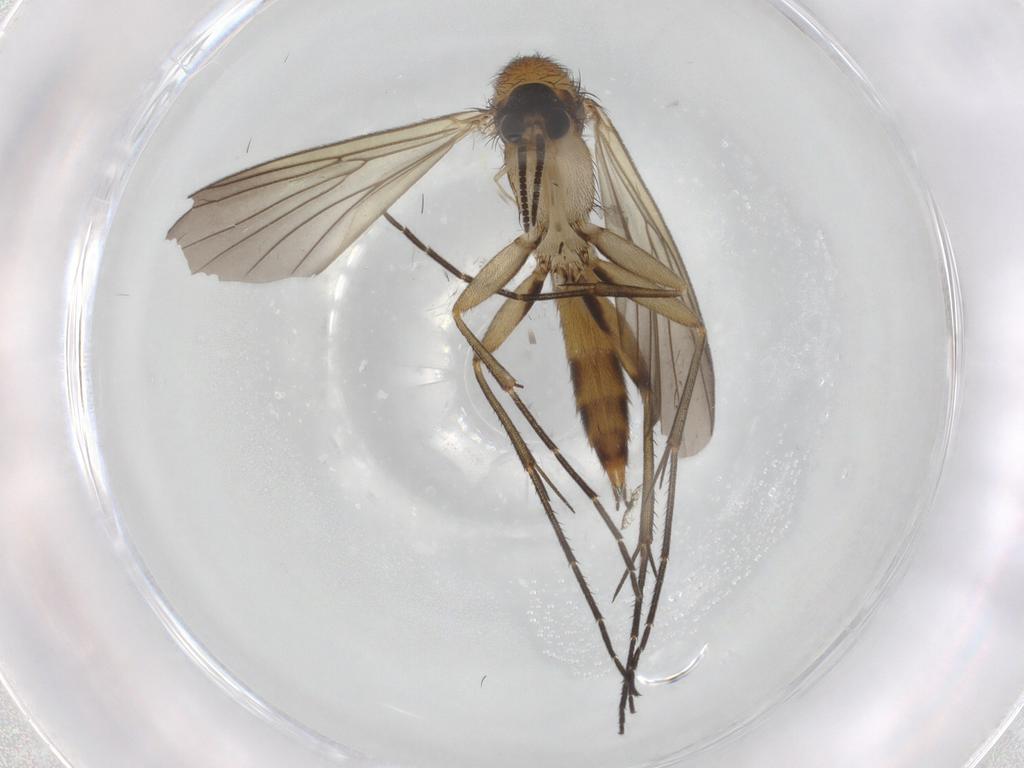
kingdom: Animalia
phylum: Arthropoda
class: Insecta
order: Diptera
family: Mycetophilidae
